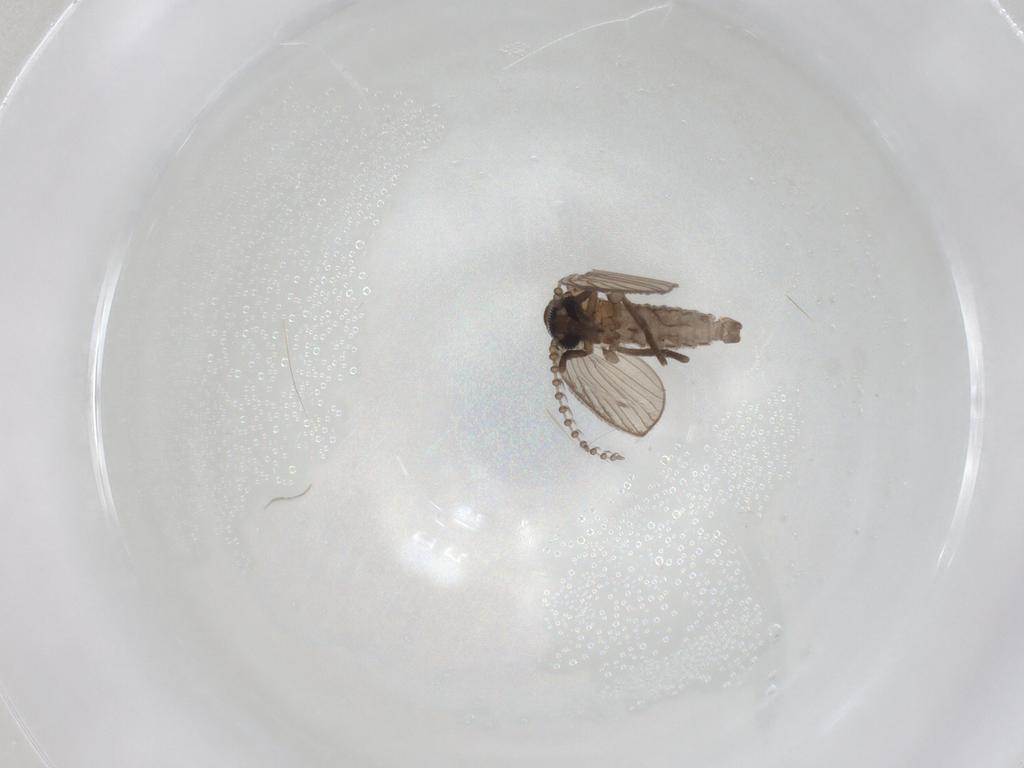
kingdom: Animalia
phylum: Arthropoda
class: Insecta
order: Diptera
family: Psychodidae
